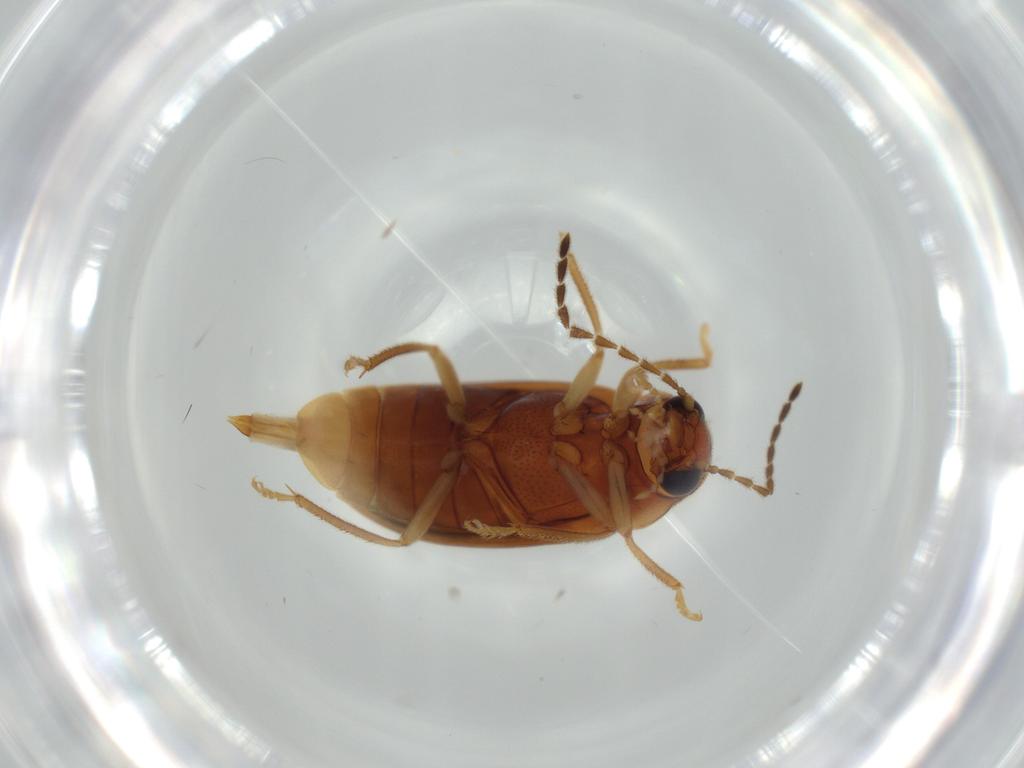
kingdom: Animalia
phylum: Arthropoda
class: Insecta
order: Coleoptera
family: Ptilodactylidae
